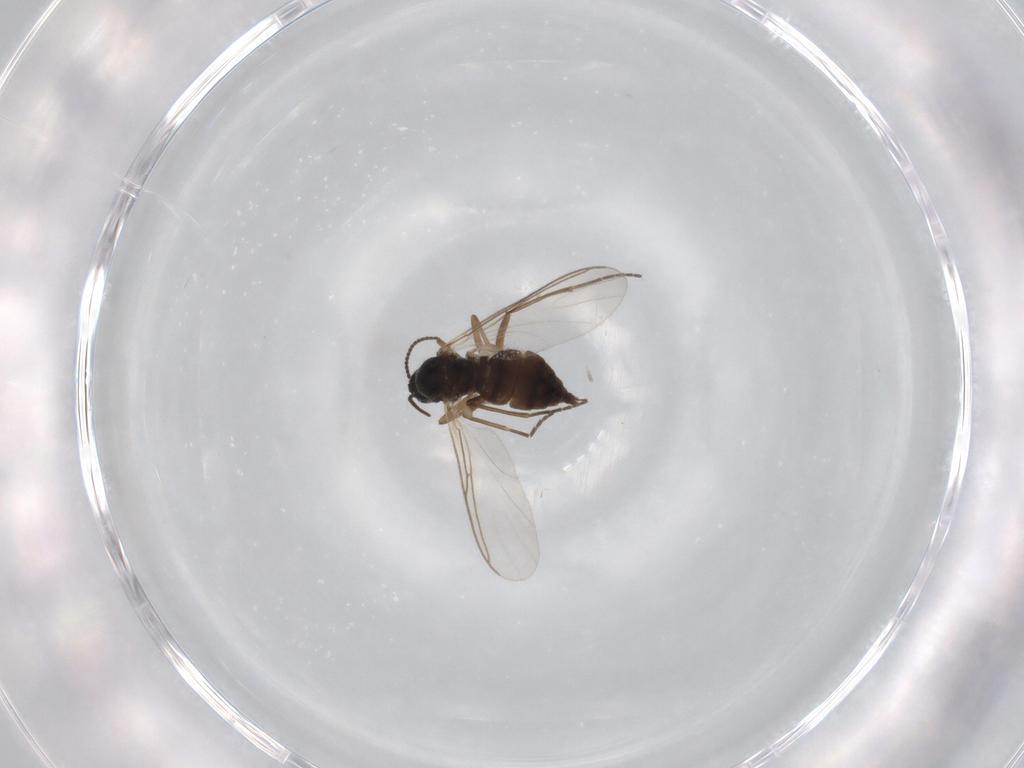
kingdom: Animalia
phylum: Arthropoda
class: Insecta
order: Diptera
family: Sciaridae
